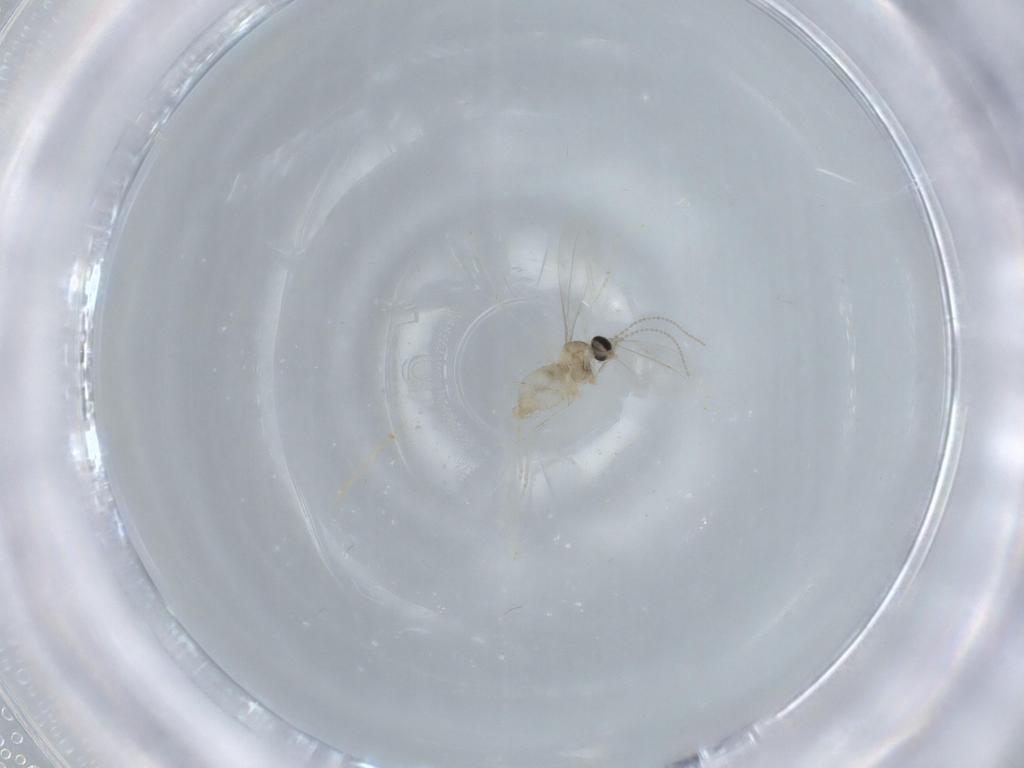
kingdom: Animalia
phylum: Arthropoda
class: Insecta
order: Diptera
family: Cecidomyiidae
